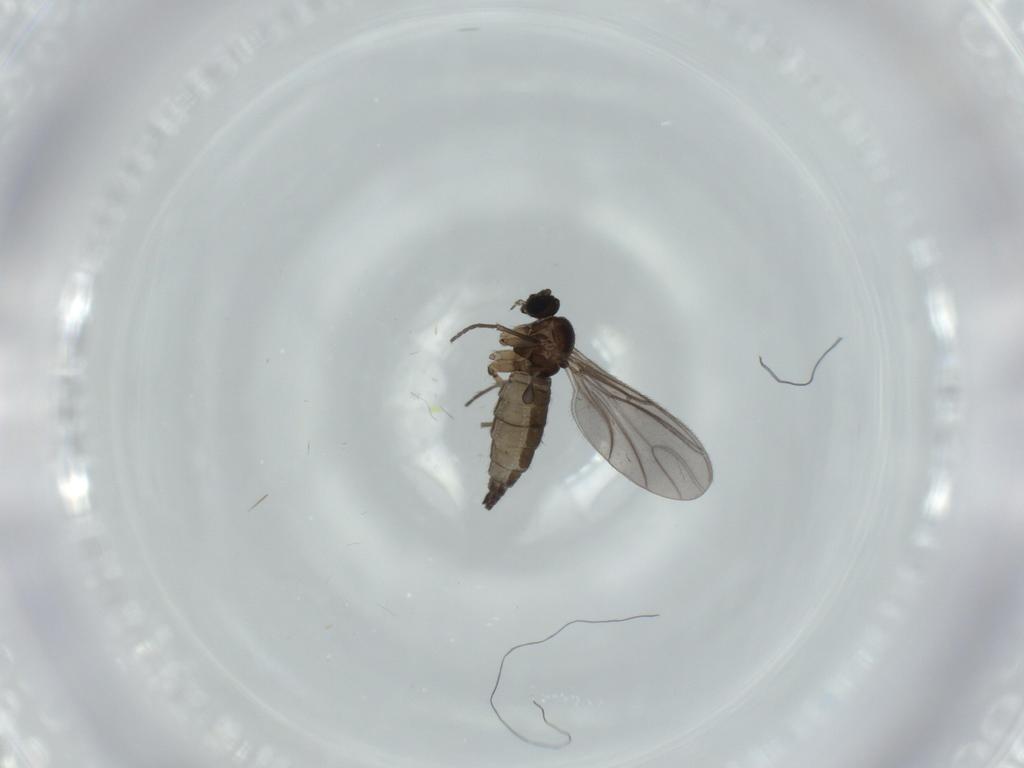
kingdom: Animalia
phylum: Arthropoda
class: Insecta
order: Diptera
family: Sciaridae
